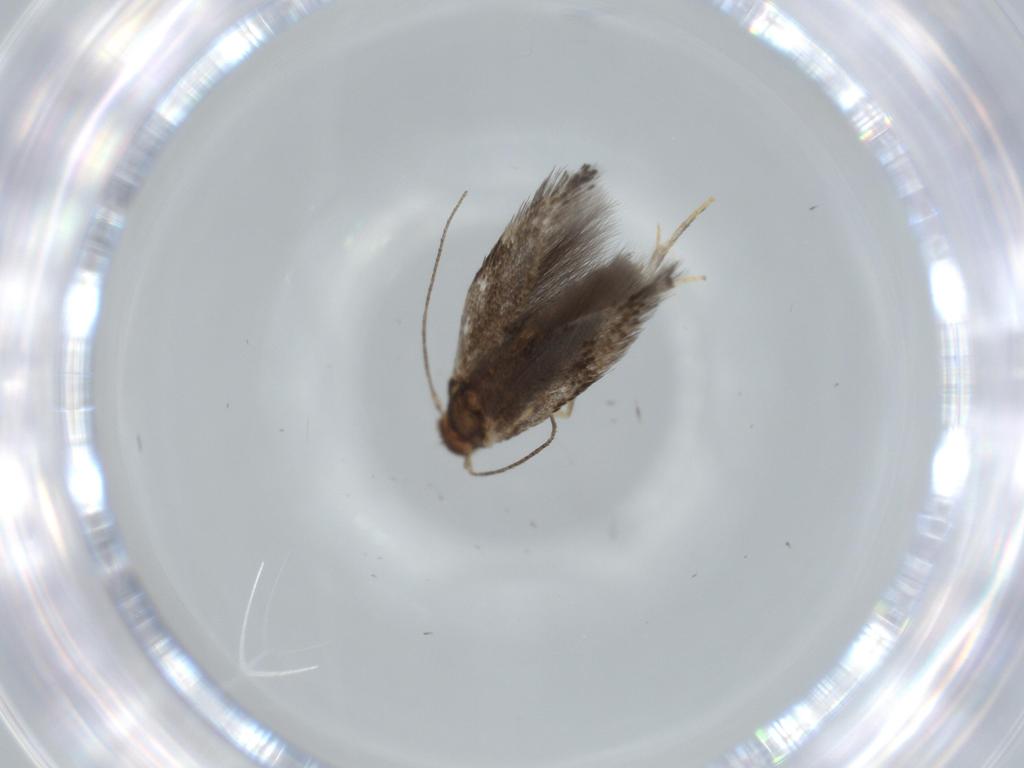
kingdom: Animalia
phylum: Arthropoda
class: Insecta
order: Lepidoptera
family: Gelechiidae
